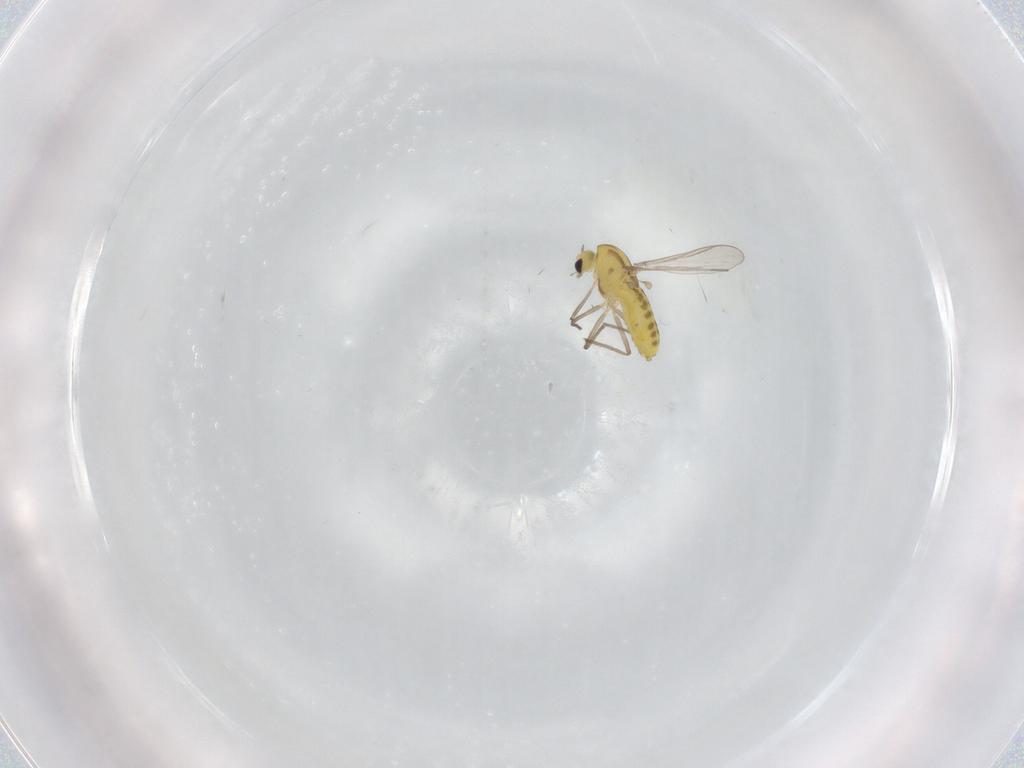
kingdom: Animalia
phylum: Arthropoda
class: Insecta
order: Diptera
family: Chironomidae
